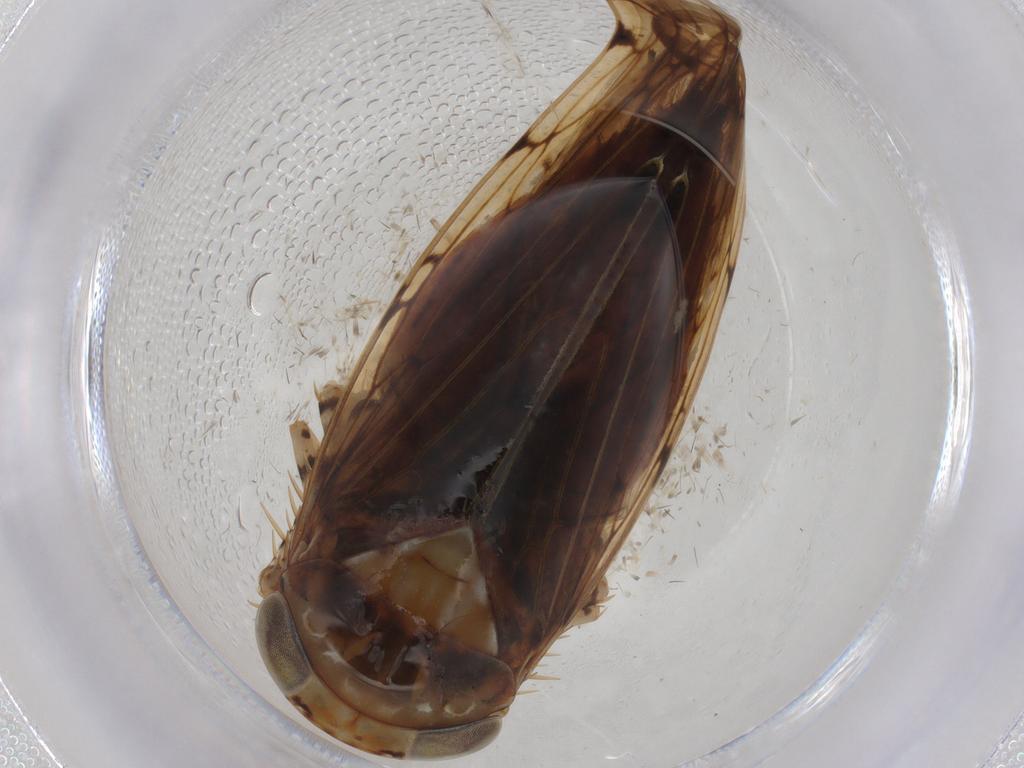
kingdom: Animalia
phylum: Arthropoda
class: Insecta
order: Hemiptera
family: Cicadellidae
